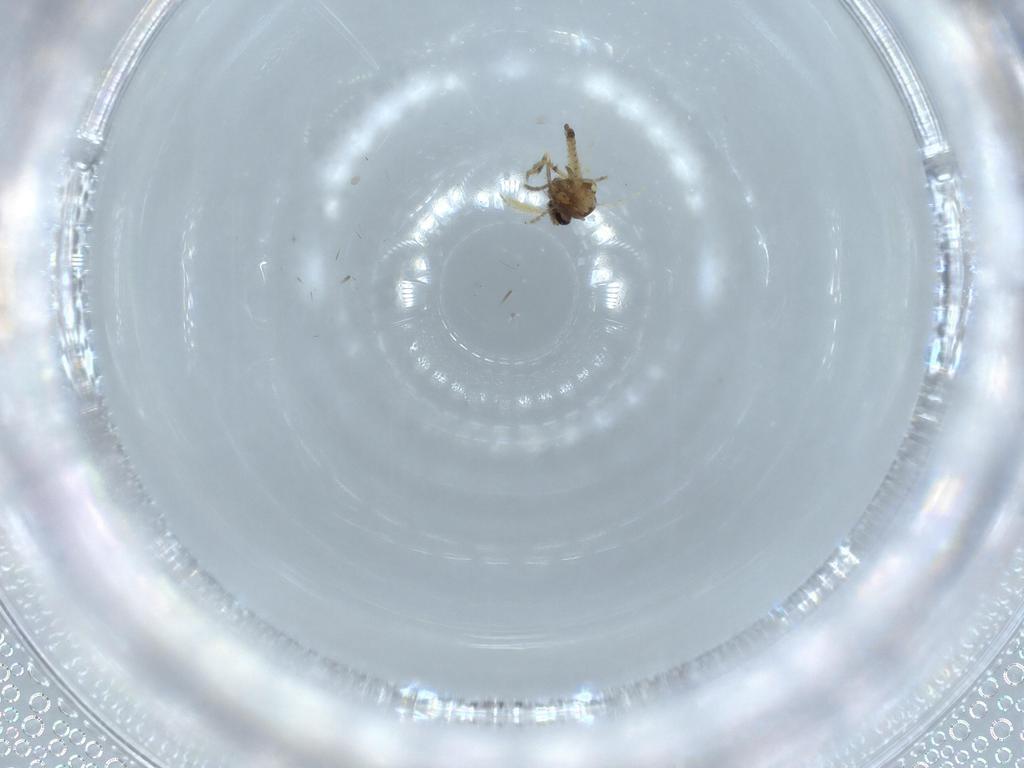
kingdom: Animalia
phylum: Arthropoda
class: Insecta
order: Diptera
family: Ceratopogonidae
